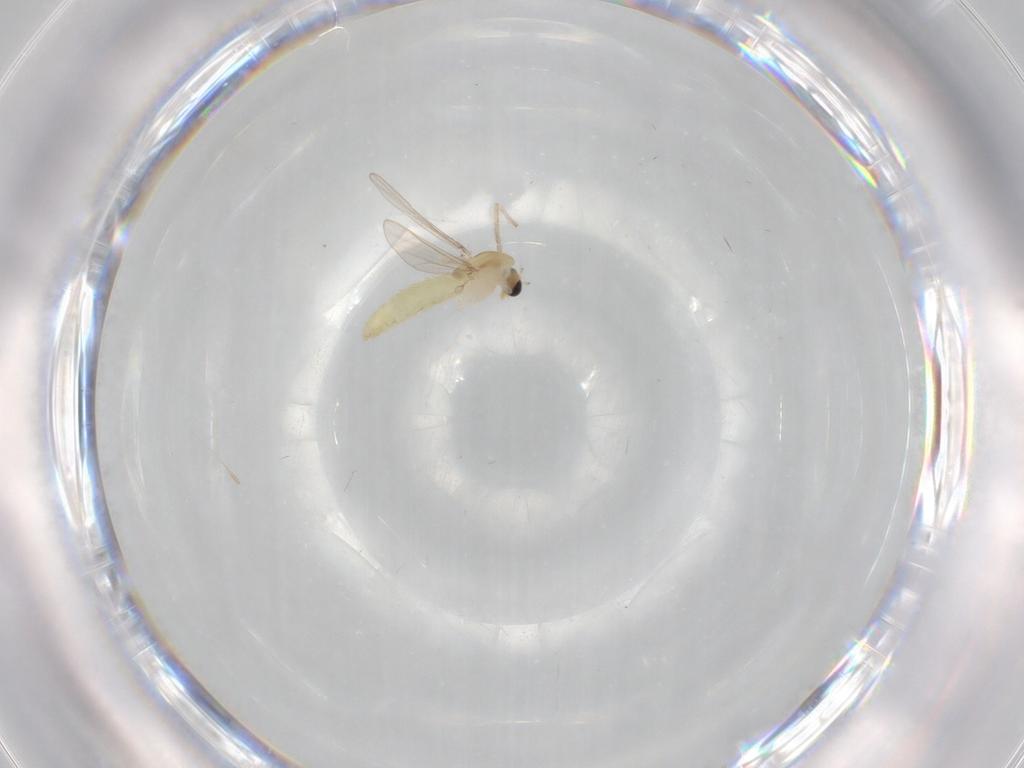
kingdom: Animalia
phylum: Arthropoda
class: Insecta
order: Diptera
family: Chironomidae
